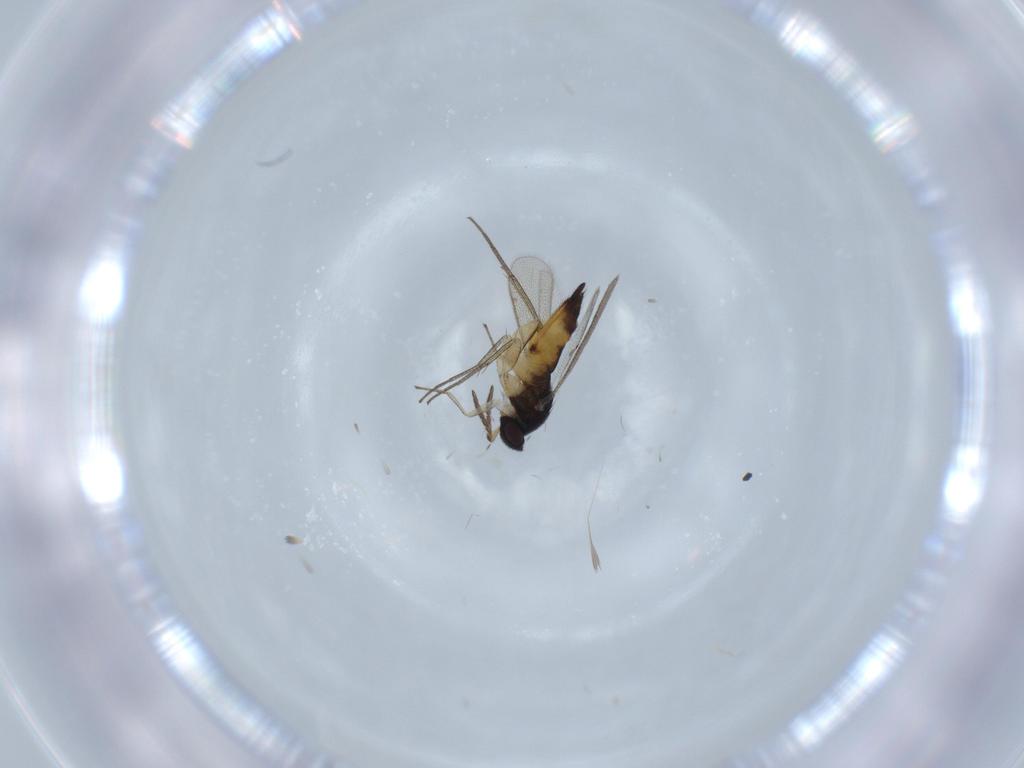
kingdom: Animalia
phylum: Arthropoda
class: Insecta
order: Hymenoptera
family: Eulophidae
